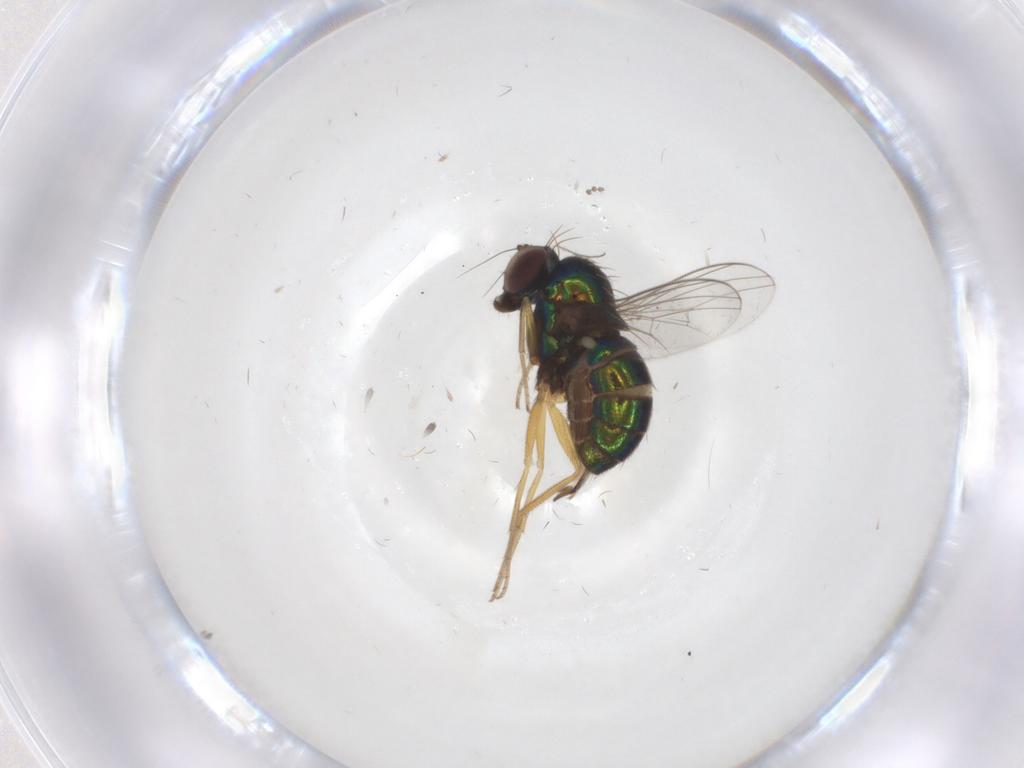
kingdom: Animalia
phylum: Arthropoda
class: Insecta
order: Diptera
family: Dolichopodidae
